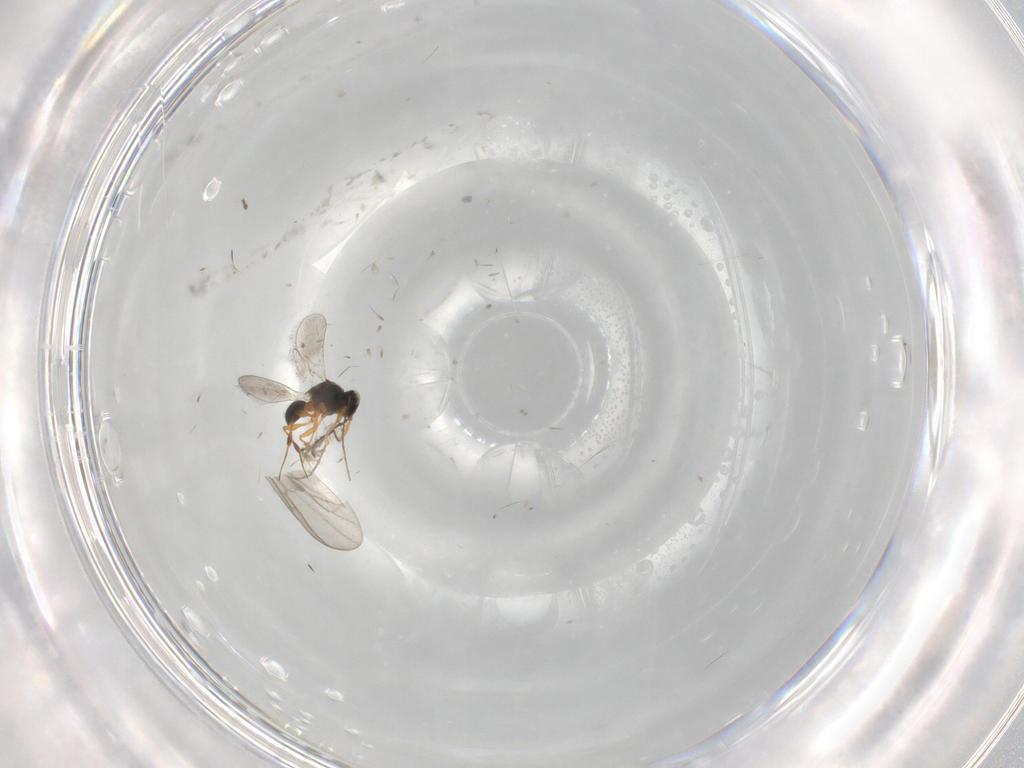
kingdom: Animalia
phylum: Arthropoda
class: Insecta
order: Hymenoptera
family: Platygastridae
